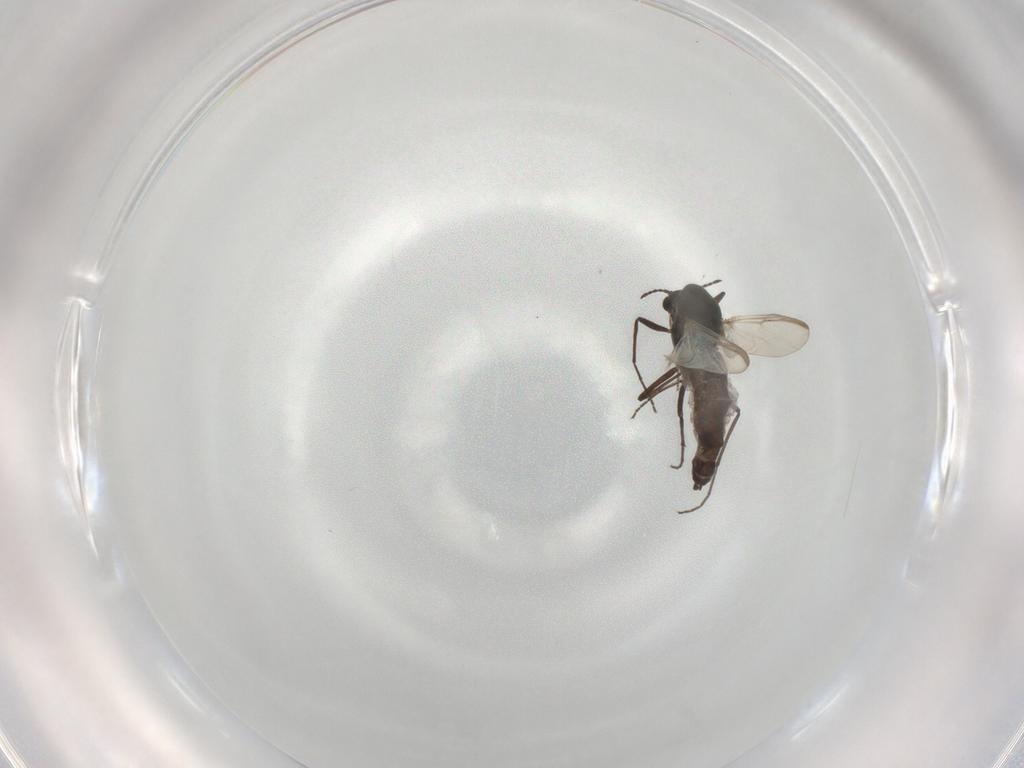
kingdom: Animalia
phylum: Arthropoda
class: Insecta
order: Diptera
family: Chironomidae
